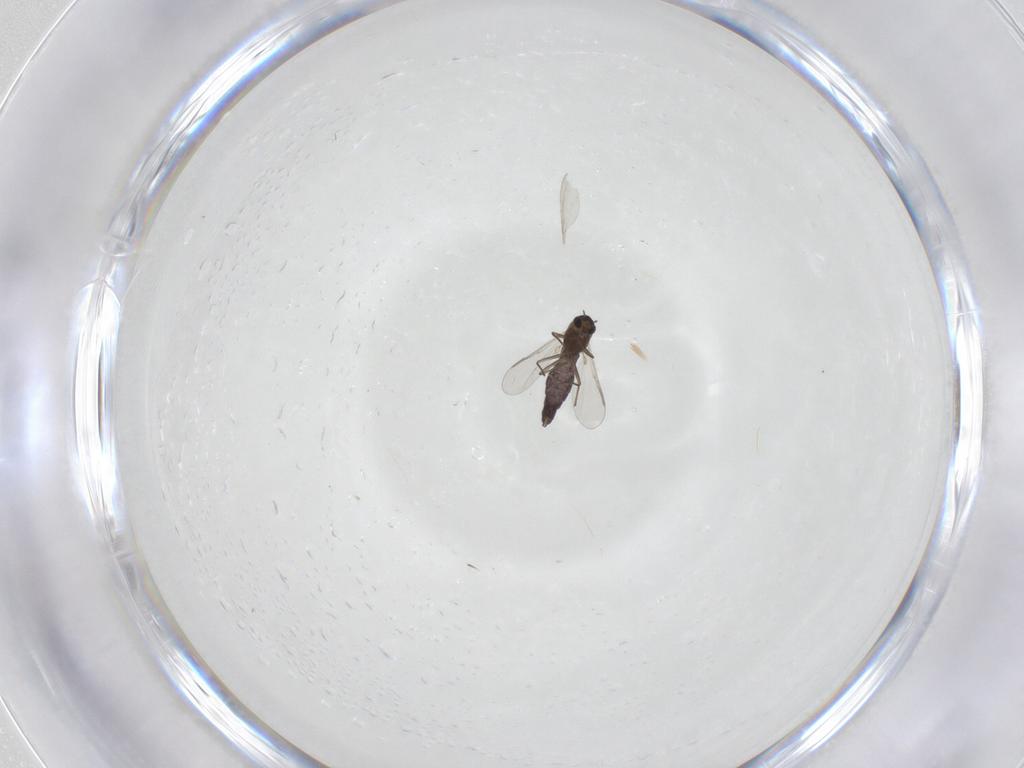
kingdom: Animalia
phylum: Arthropoda
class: Insecta
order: Diptera
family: Chironomidae
